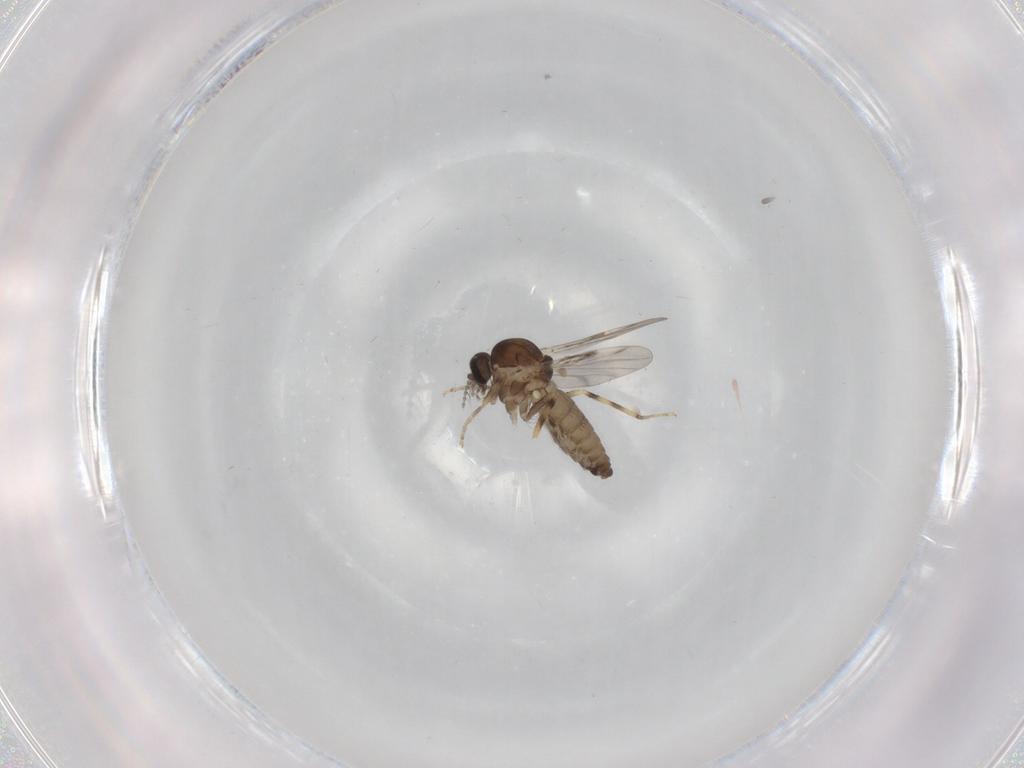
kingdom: Animalia
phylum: Arthropoda
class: Insecta
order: Diptera
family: Ceratopogonidae
